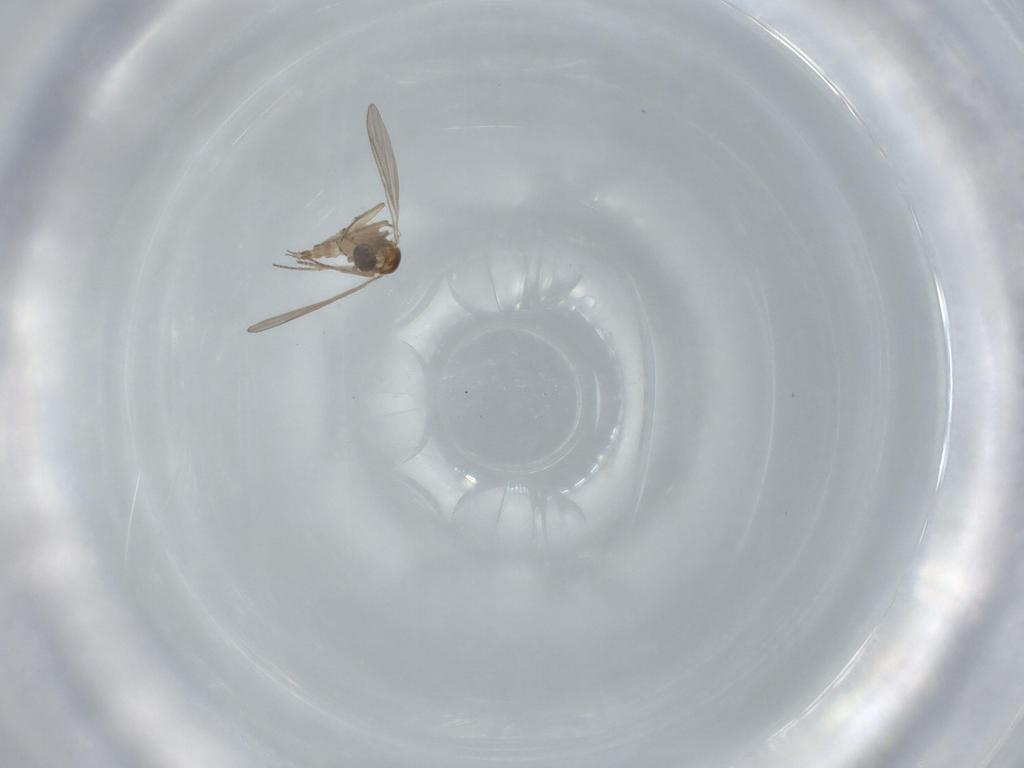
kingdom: Animalia
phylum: Arthropoda
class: Insecta
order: Diptera
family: Sciaridae
